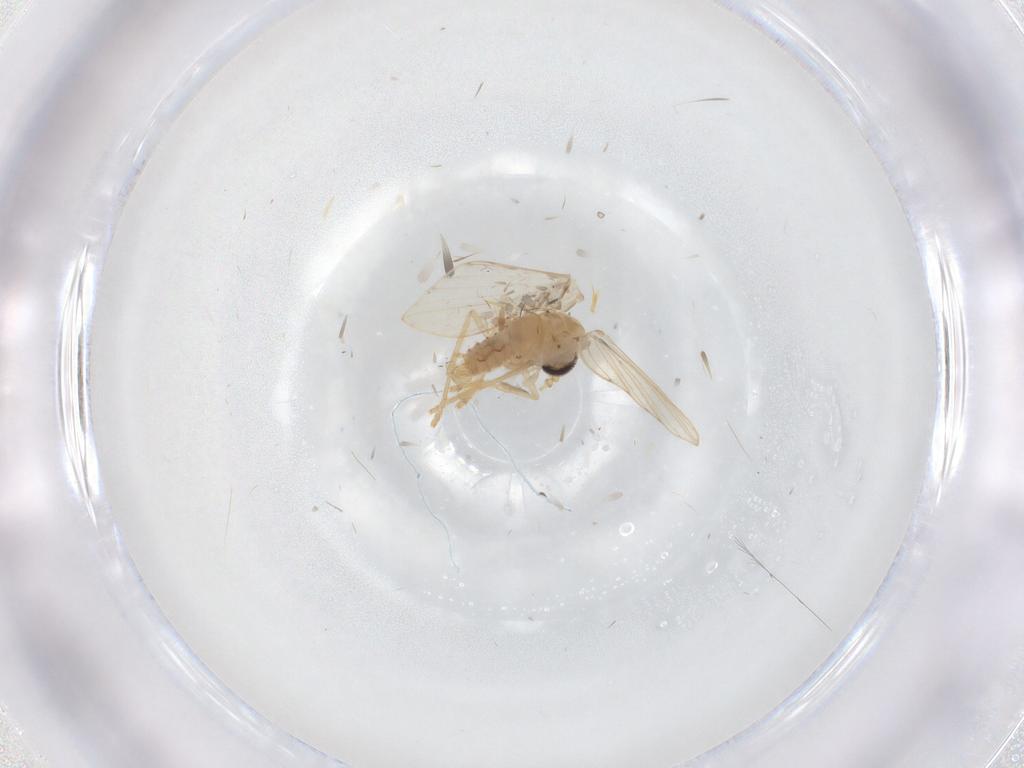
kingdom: Animalia
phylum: Arthropoda
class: Insecta
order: Diptera
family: Psychodidae
